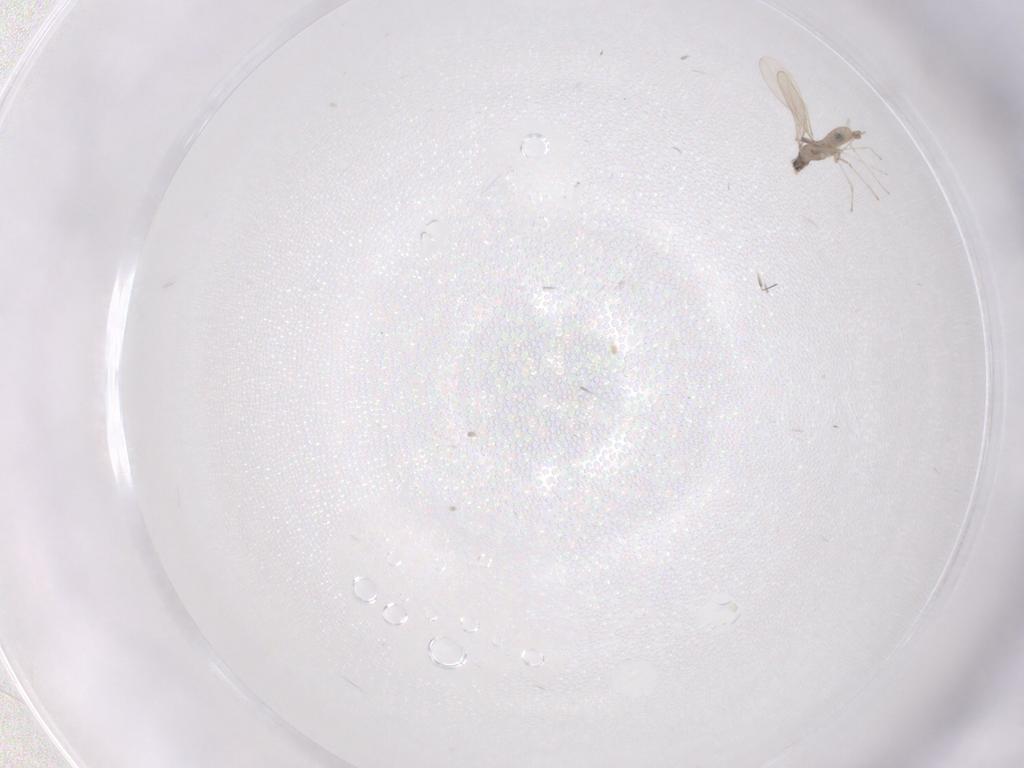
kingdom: Animalia
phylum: Arthropoda
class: Insecta
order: Diptera
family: Cecidomyiidae
